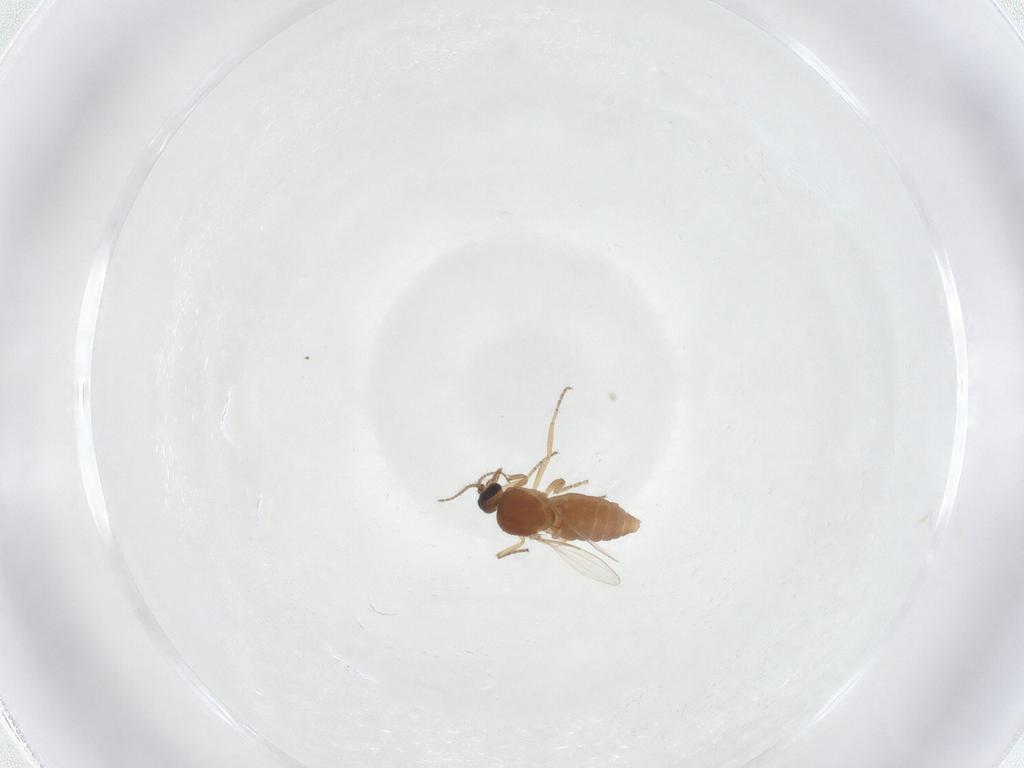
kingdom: Animalia
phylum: Arthropoda
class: Insecta
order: Diptera
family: Ceratopogonidae
